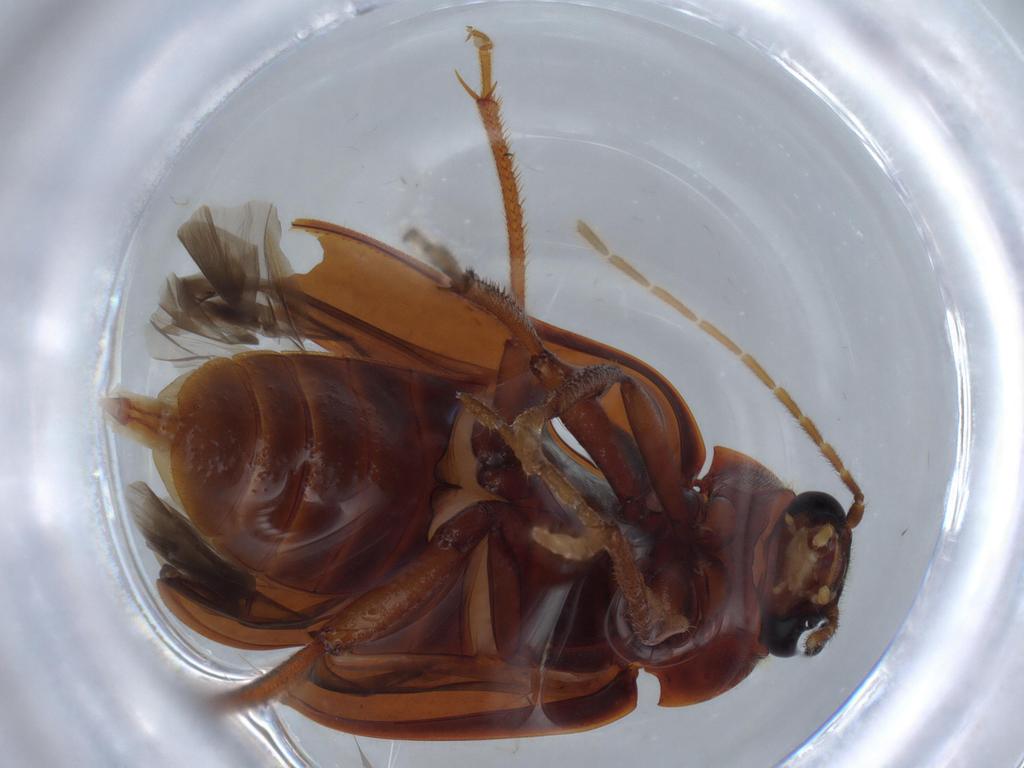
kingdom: Animalia
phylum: Arthropoda
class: Insecta
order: Coleoptera
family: Ptilodactylidae
